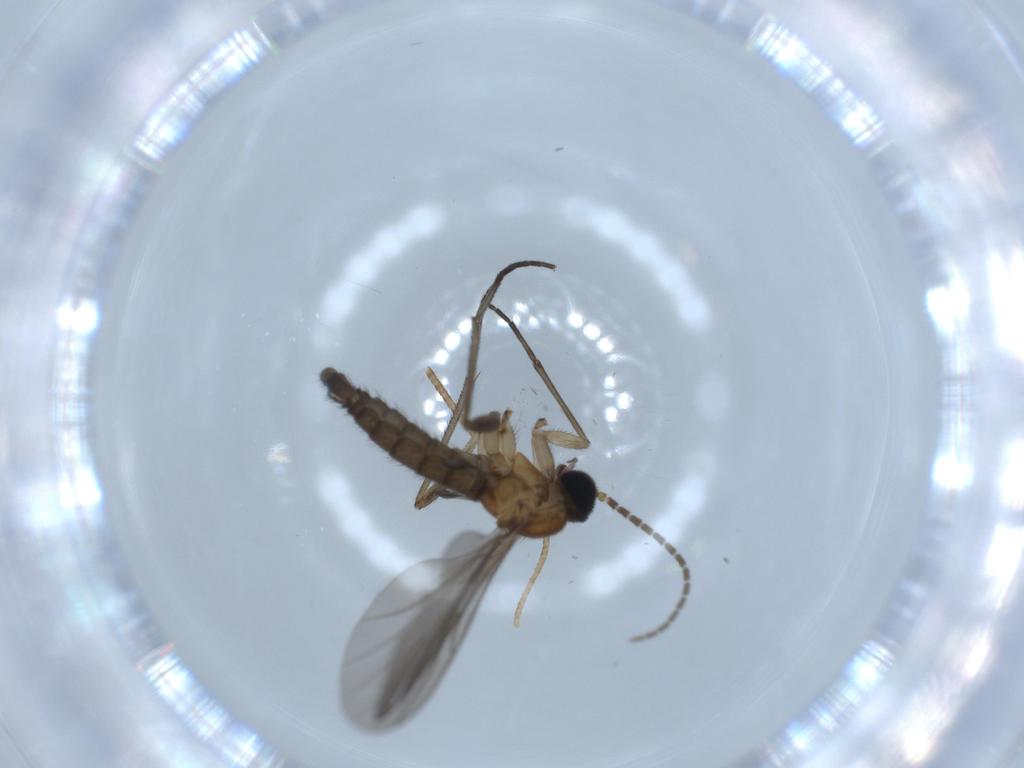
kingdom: Animalia
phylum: Arthropoda
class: Insecta
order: Diptera
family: Sciaridae
